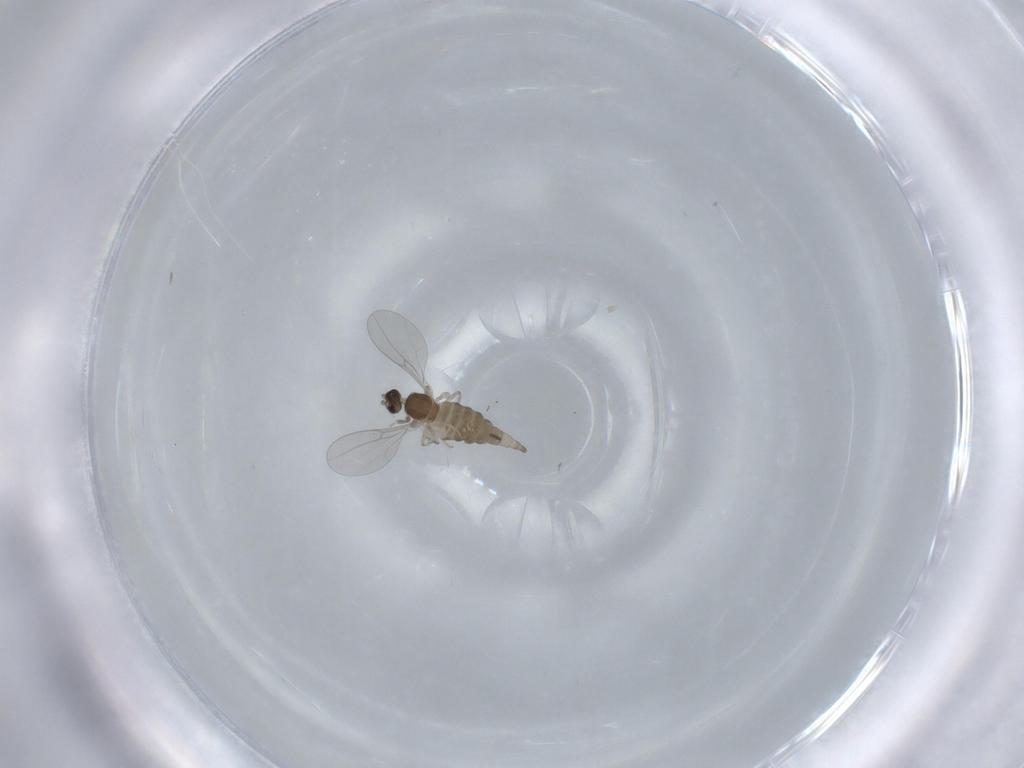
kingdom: Animalia
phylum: Arthropoda
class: Insecta
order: Diptera
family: Cecidomyiidae
